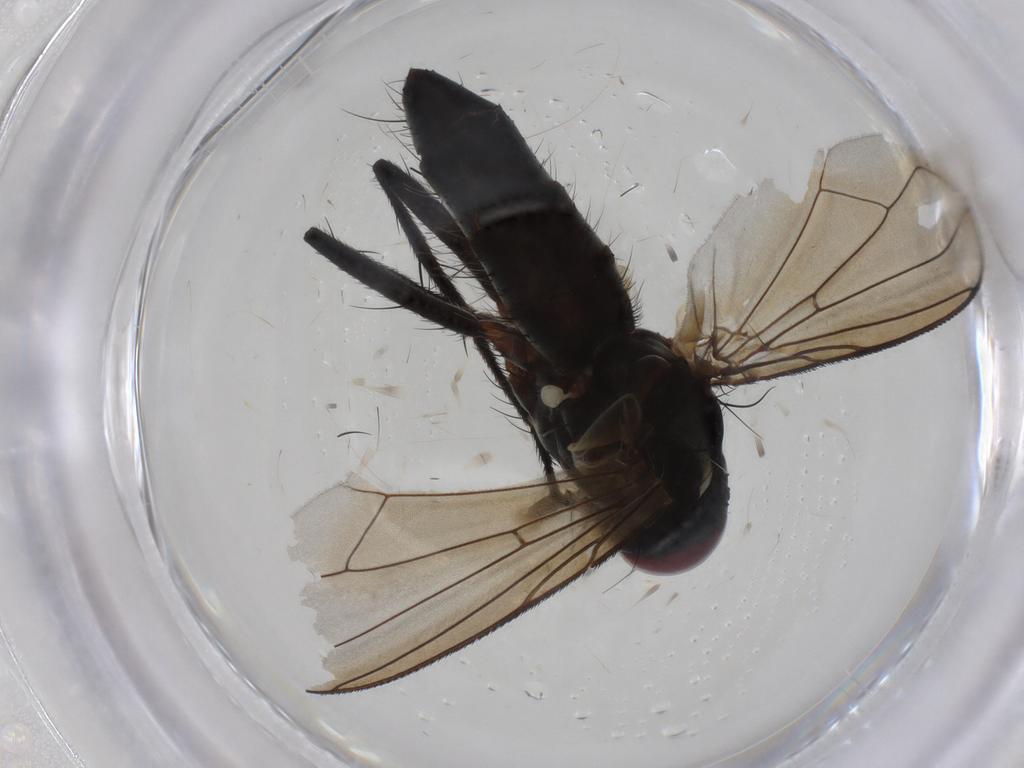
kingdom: Animalia
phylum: Arthropoda
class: Insecta
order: Diptera
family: Tachinidae
